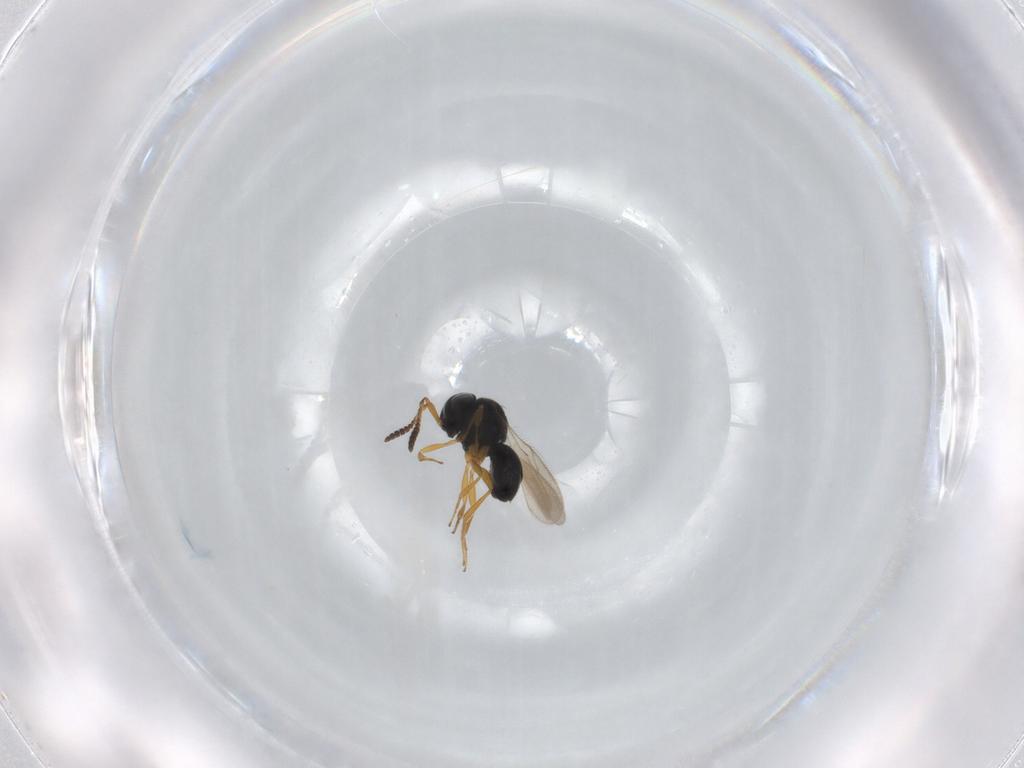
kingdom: Animalia
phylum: Arthropoda
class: Insecta
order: Hymenoptera
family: Scelionidae
